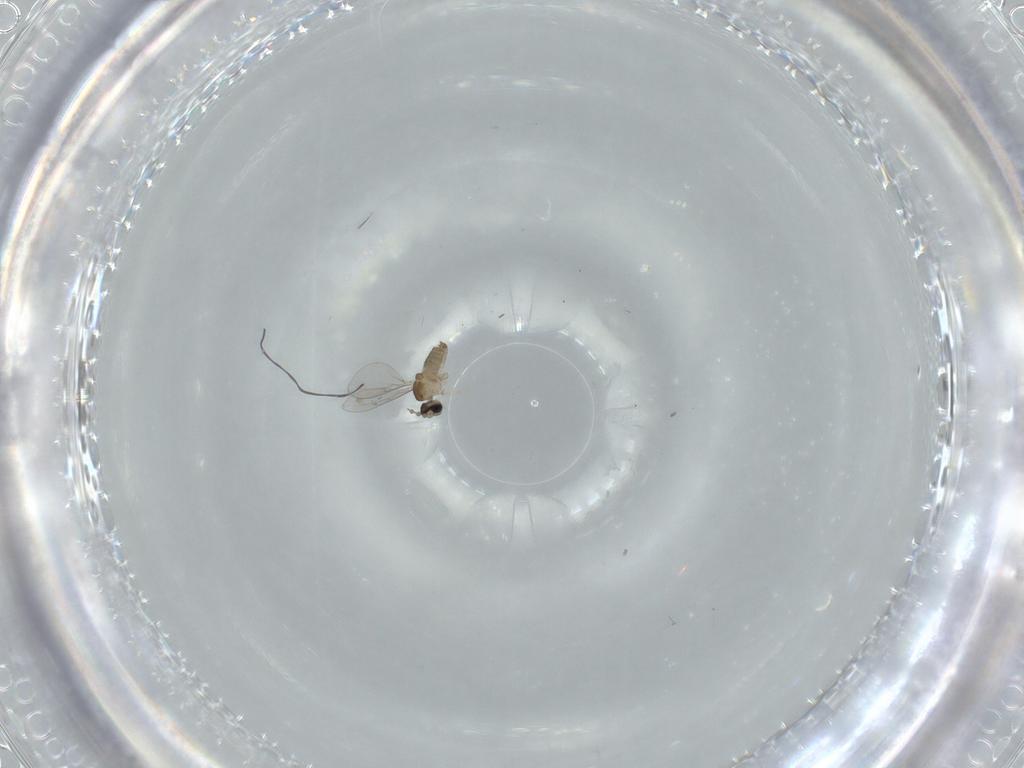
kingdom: Animalia
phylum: Arthropoda
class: Insecta
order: Diptera
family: Cecidomyiidae
